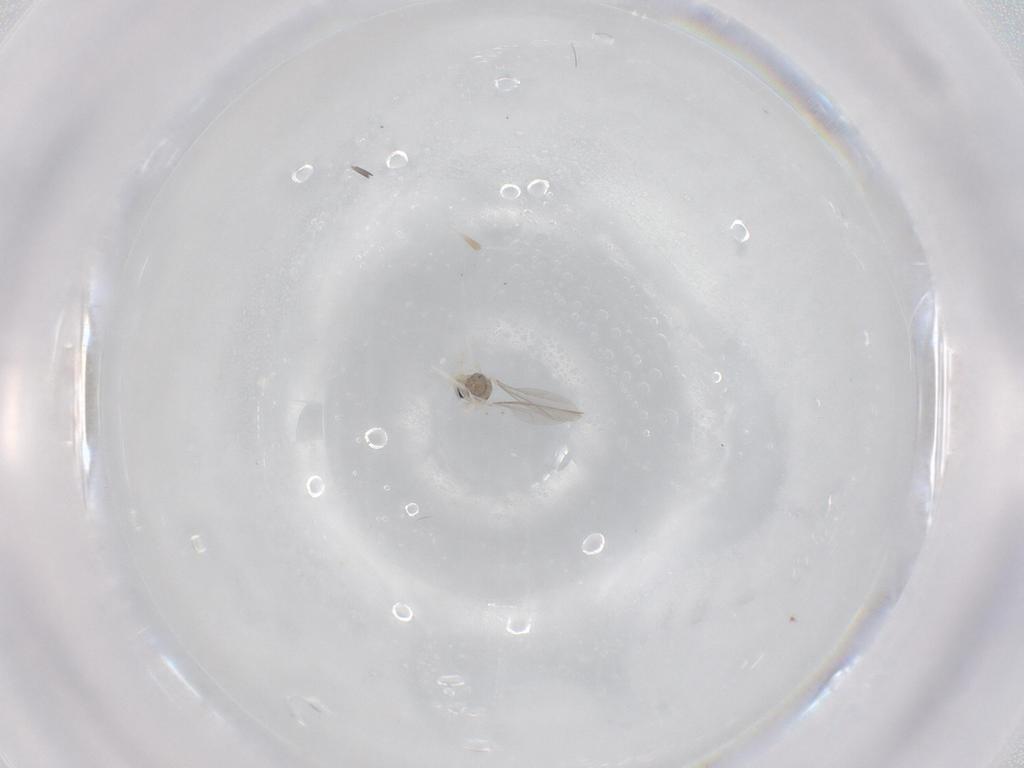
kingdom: Animalia
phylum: Arthropoda
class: Insecta
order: Diptera
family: Cecidomyiidae
